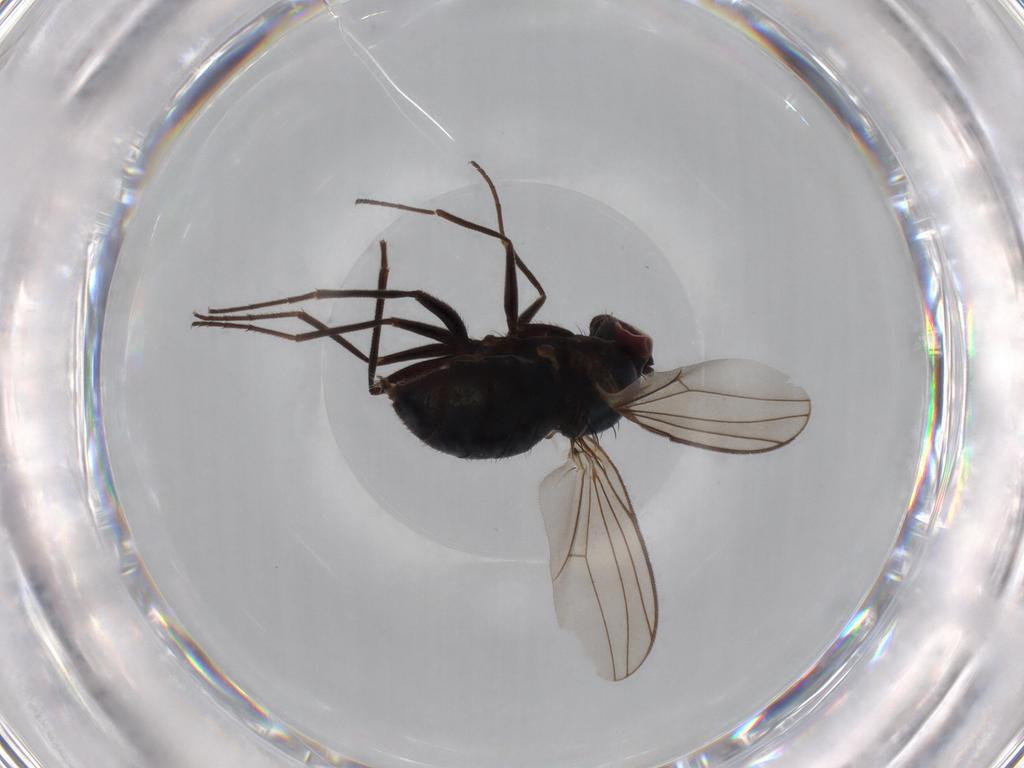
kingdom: Animalia
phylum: Arthropoda
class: Insecta
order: Diptera
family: Dolichopodidae
